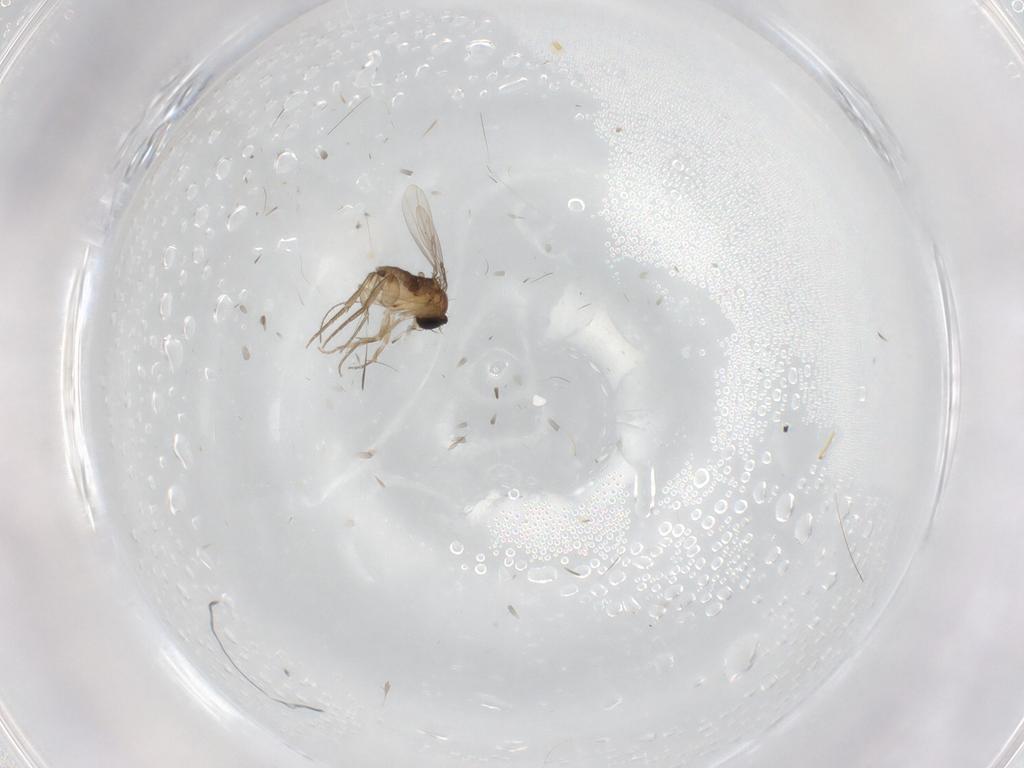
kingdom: Animalia
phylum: Arthropoda
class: Insecta
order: Diptera
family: Phoridae
